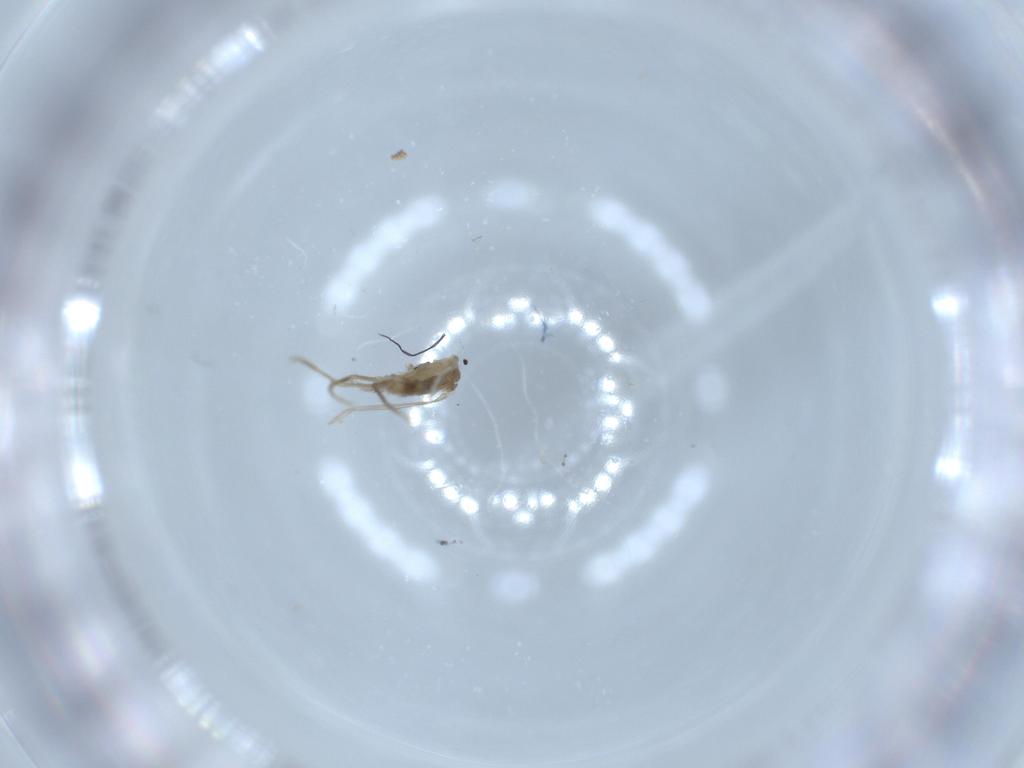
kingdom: Animalia
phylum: Arthropoda
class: Insecta
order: Diptera
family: Psychodidae
